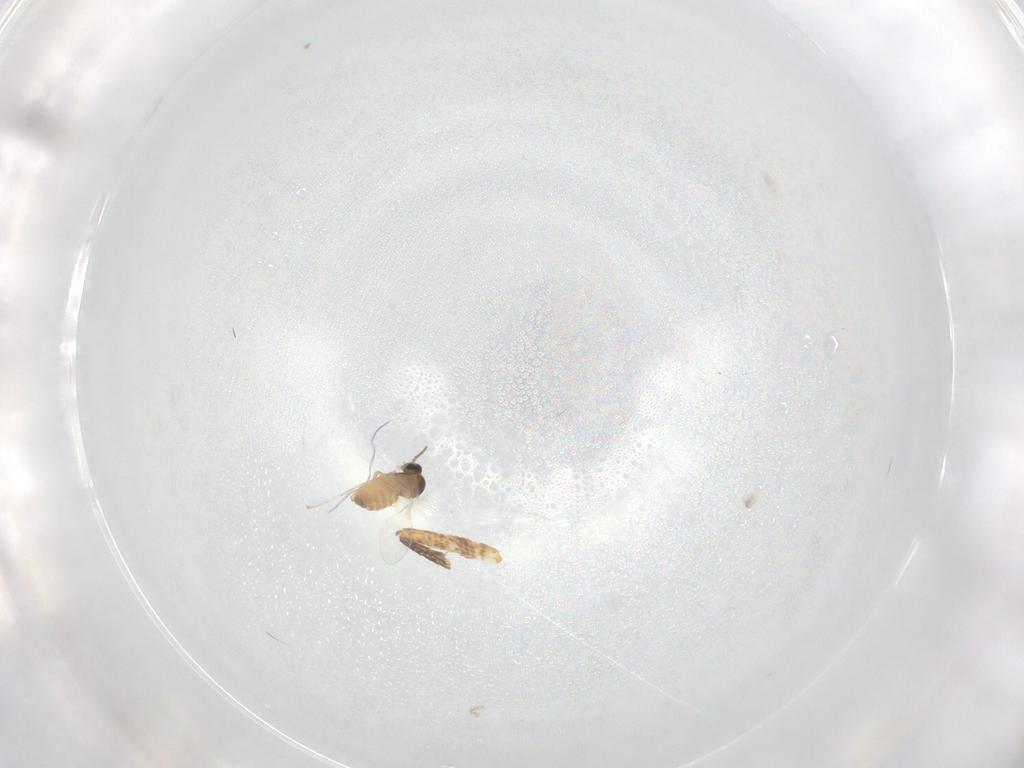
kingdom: Animalia
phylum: Arthropoda
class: Insecta
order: Diptera
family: Cecidomyiidae
